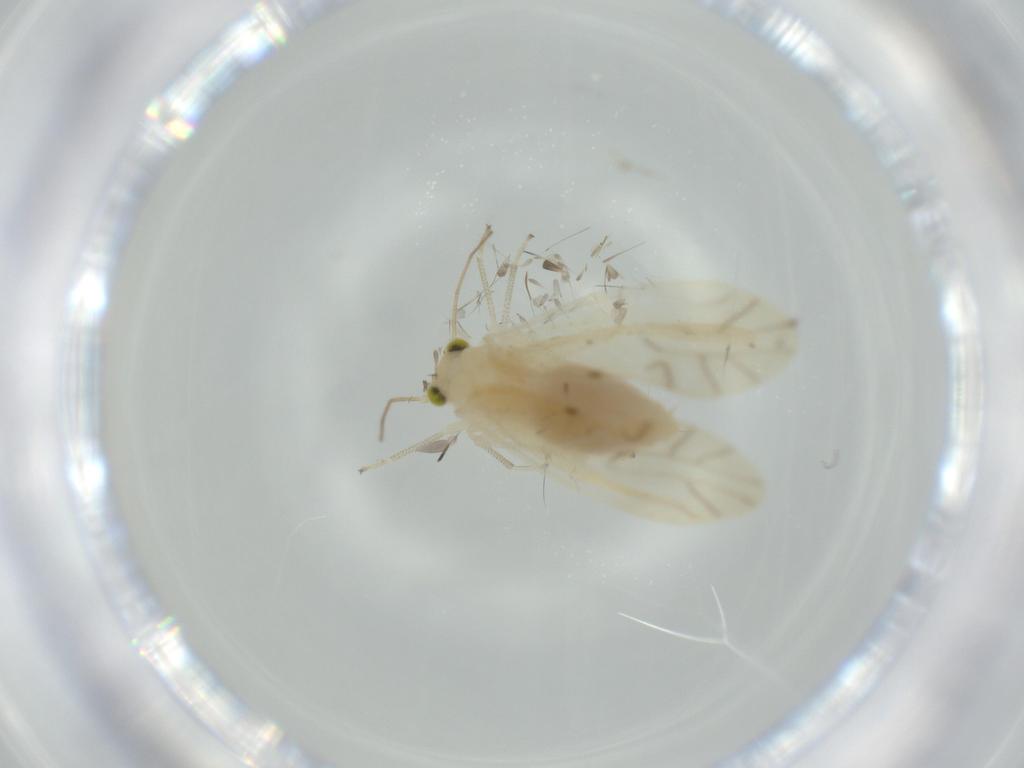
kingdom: Animalia
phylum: Arthropoda
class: Insecta
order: Psocodea
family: Caeciliusidae
